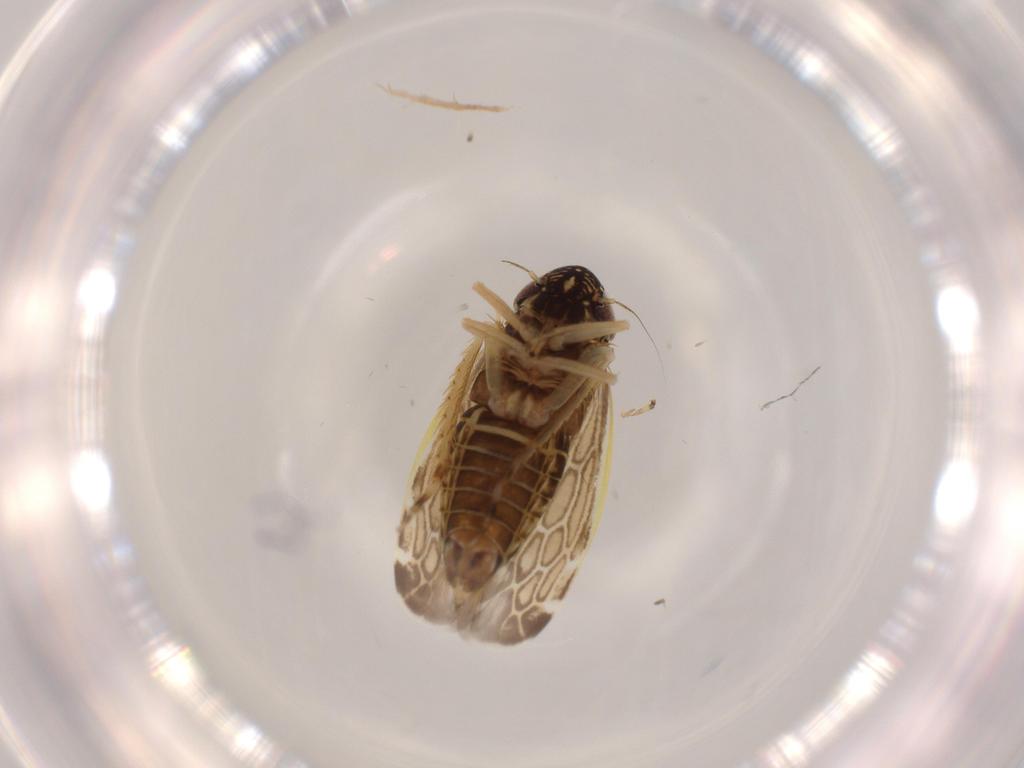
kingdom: Animalia
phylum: Arthropoda
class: Insecta
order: Hemiptera
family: Cicadellidae
